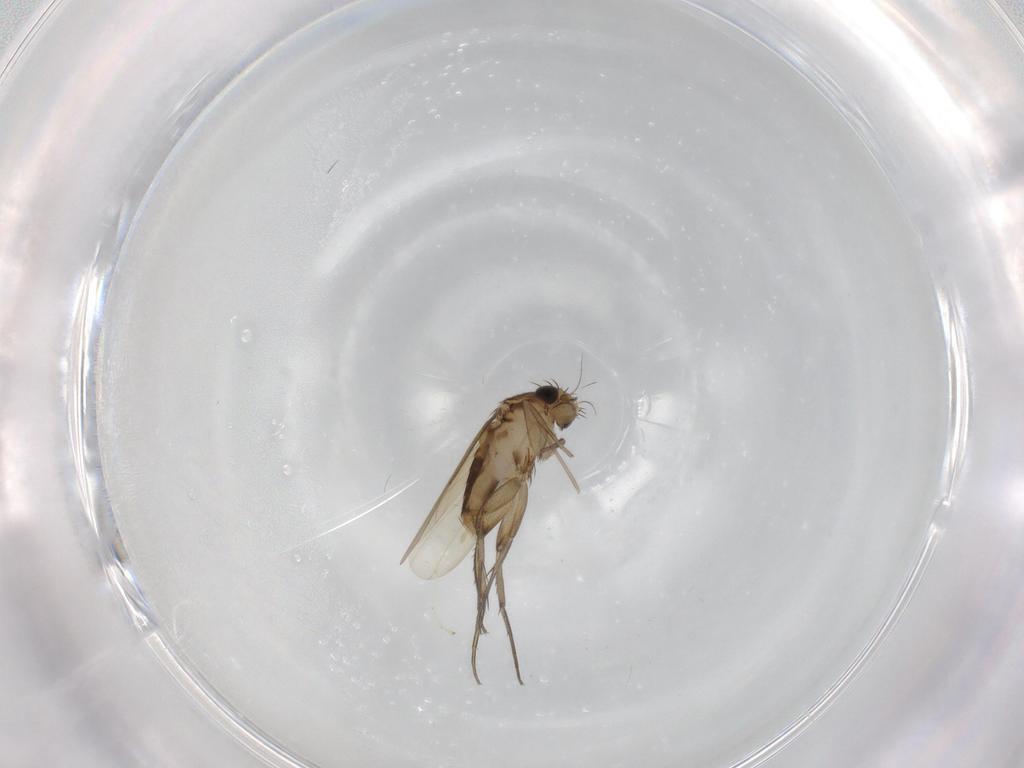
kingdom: Animalia
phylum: Arthropoda
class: Insecta
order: Diptera
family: Phoridae
